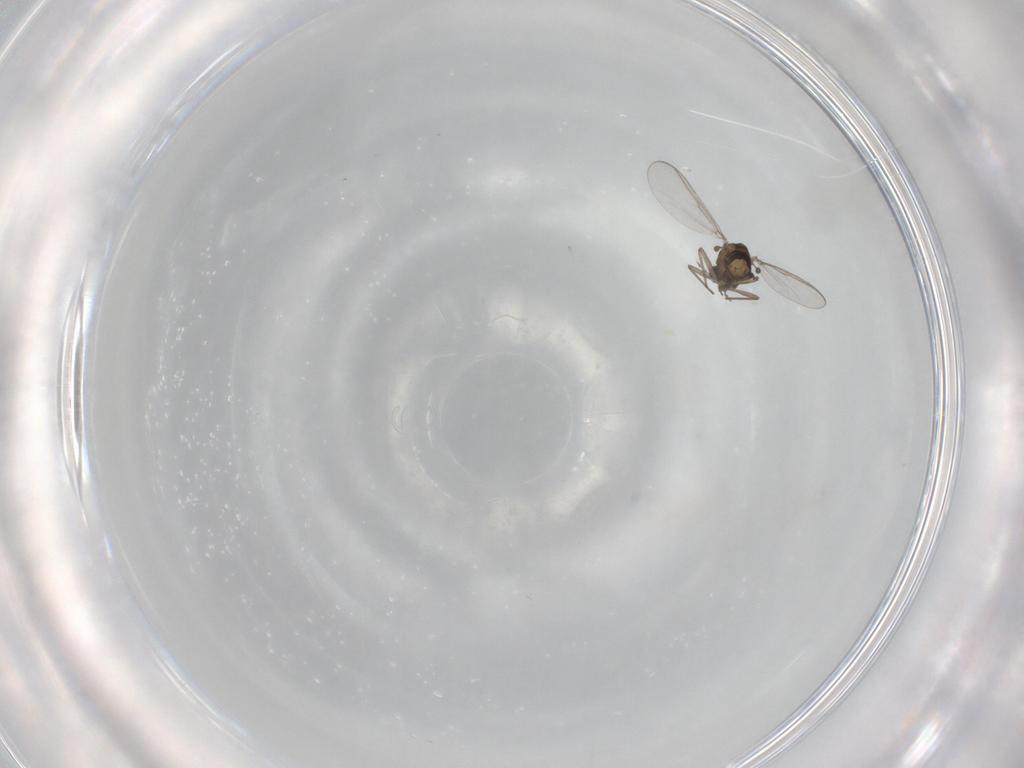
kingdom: Animalia
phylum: Arthropoda
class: Insecta
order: Diptera
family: Chironomidae
